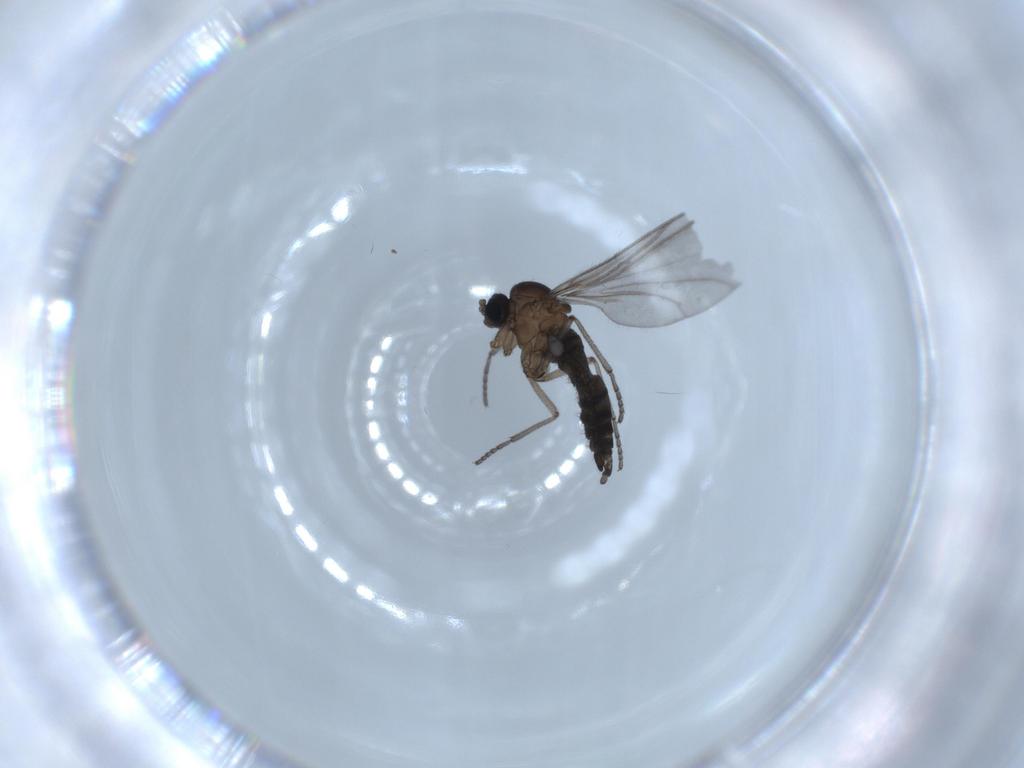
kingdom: Animalia
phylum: Arthropoda
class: Insecta
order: Diptera
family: Sciaridae
